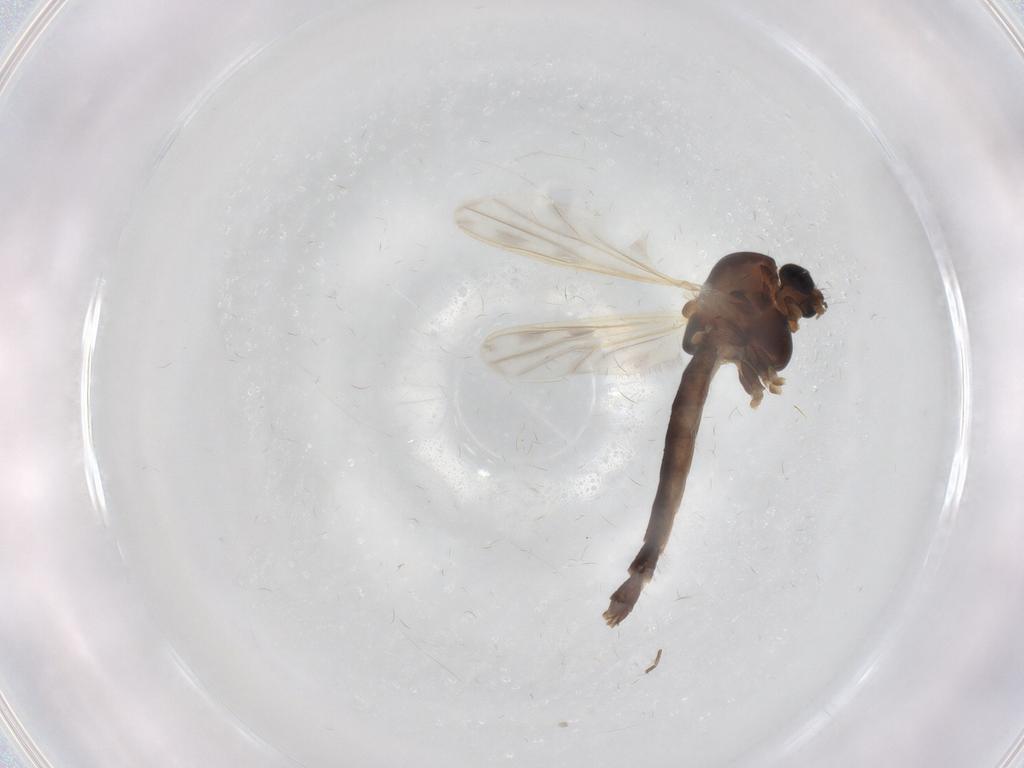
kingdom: Animalia
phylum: Arthropoda
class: Insecta
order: Diptera
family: Chironomidae
